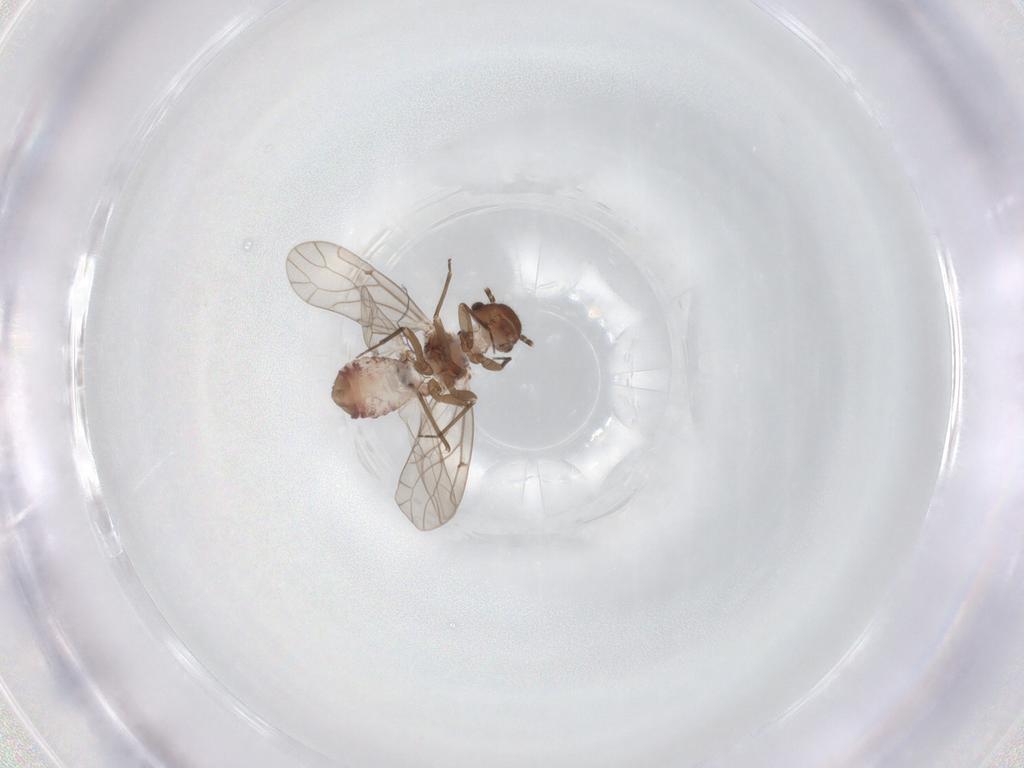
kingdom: Animalia
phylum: Arthropoda
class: Insecta
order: Psocodea
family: Ectopsocidae
